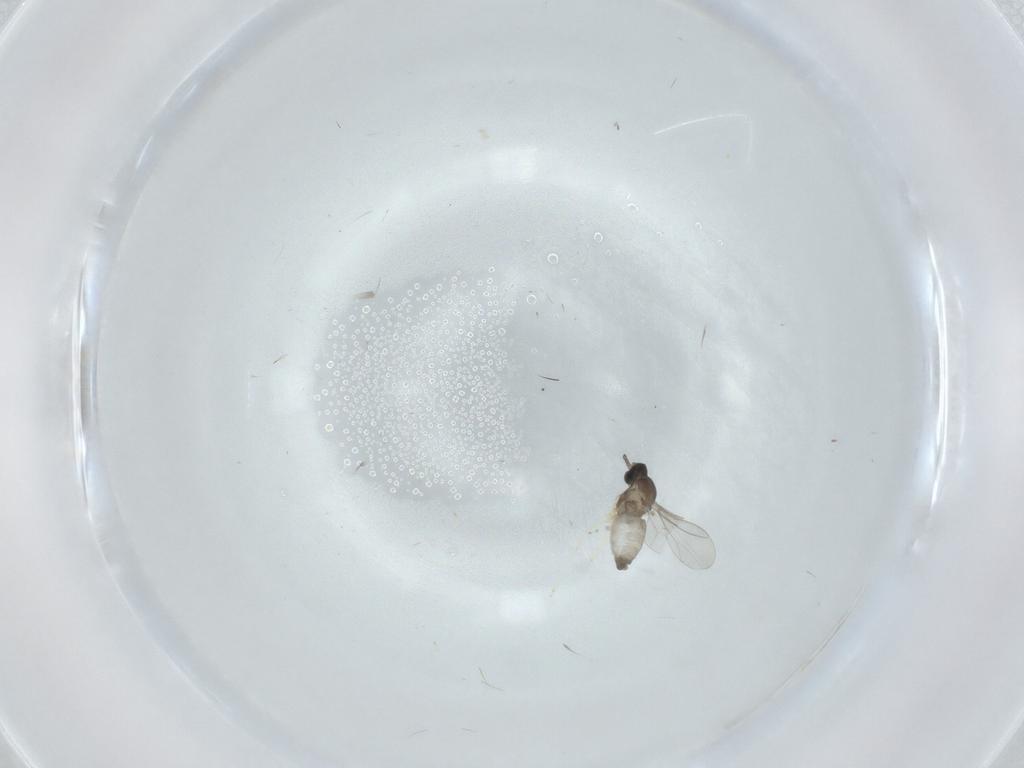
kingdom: Animalia
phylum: Arthropoda
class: Insecta
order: Diptera
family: Cecidomyiidae
